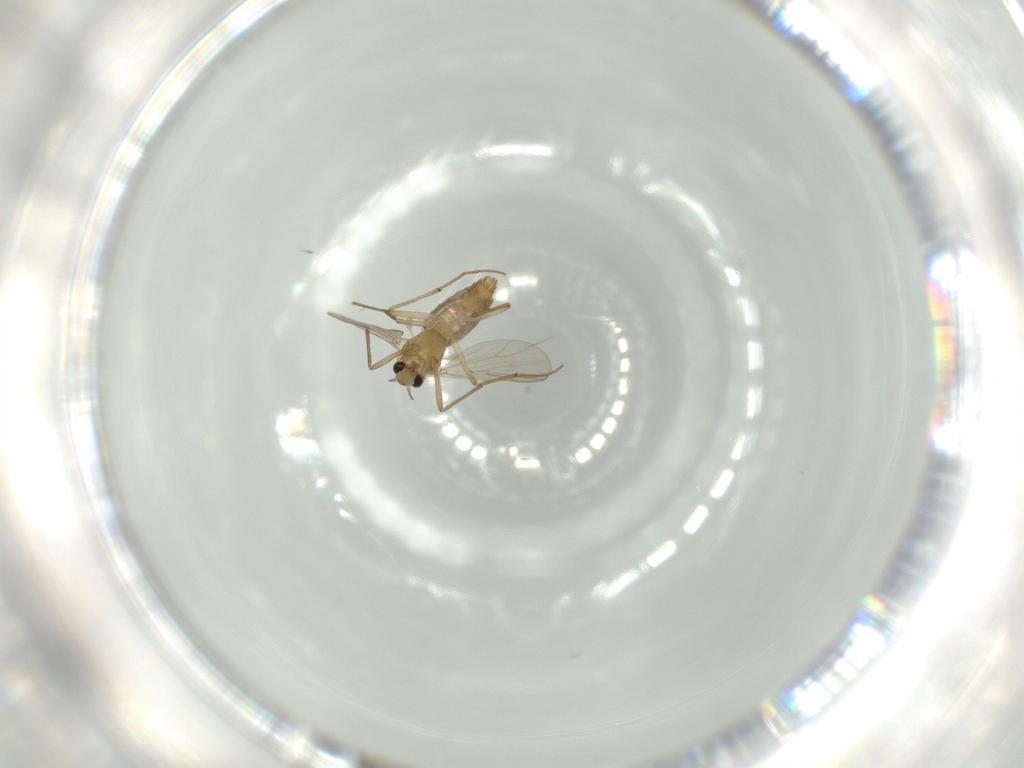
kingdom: Animalia
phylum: Arthropoda
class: Insecta
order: Diptera
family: Chironomidae
